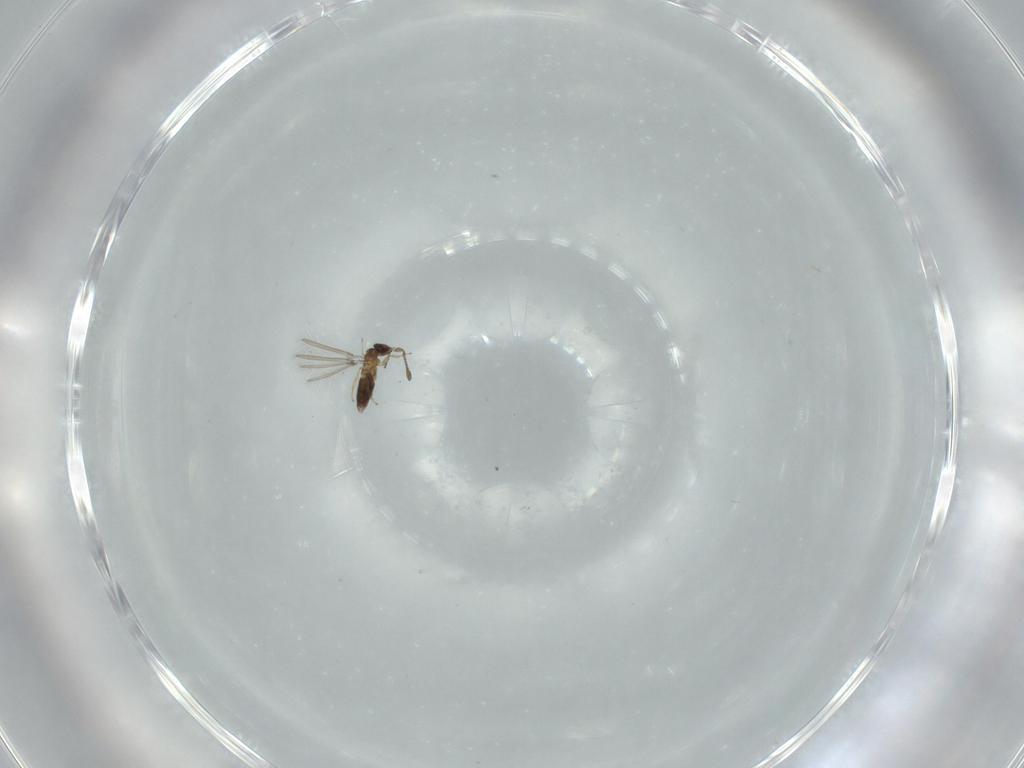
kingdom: Animalia
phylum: Arthropoda
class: Insecta
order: Hymenoptera
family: Mymaridae
